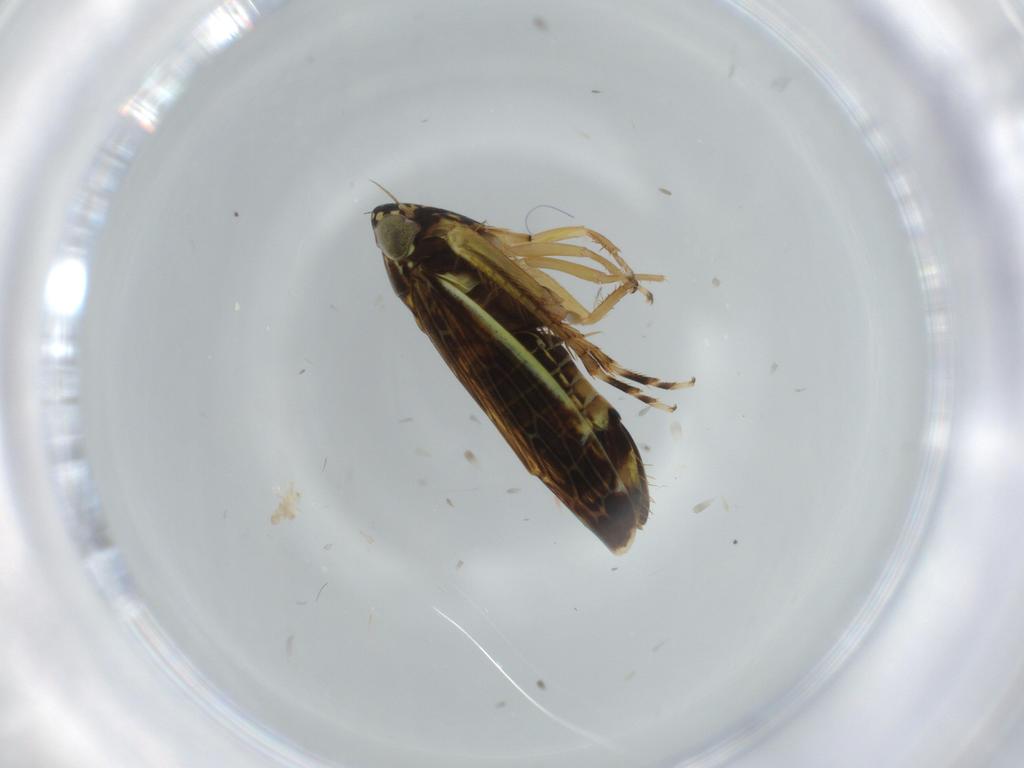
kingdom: Animalia
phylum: Arthropoda
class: Insecta
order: Hemiptera
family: Cicadellidae
